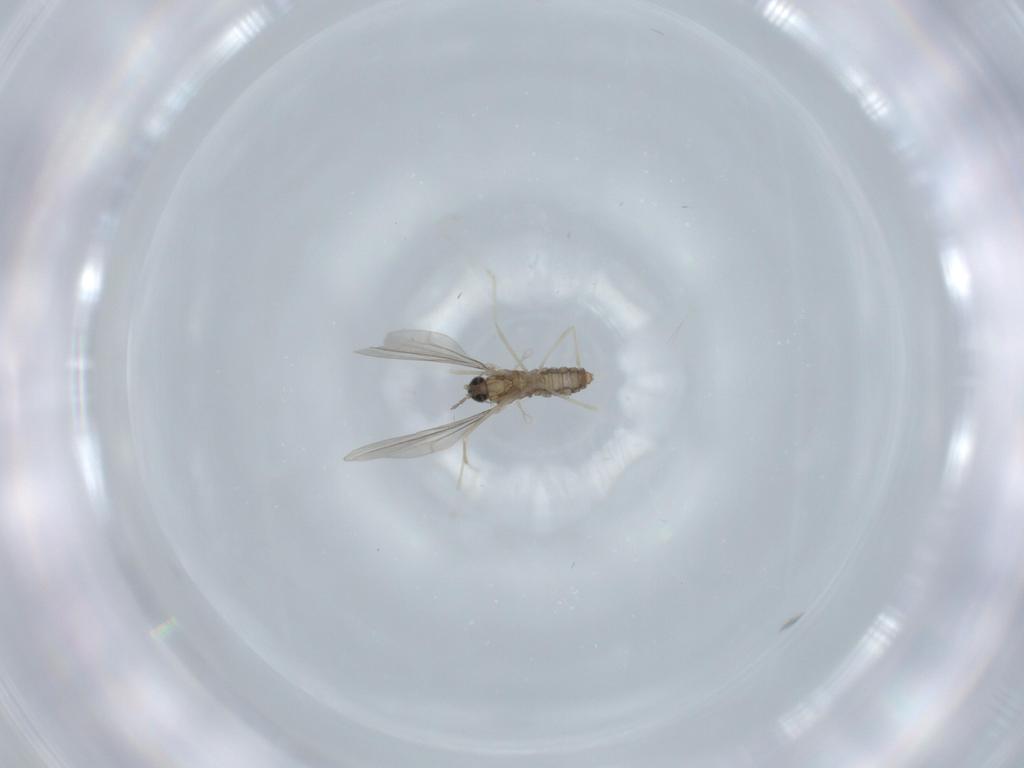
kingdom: Animalia
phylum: Arthropoda
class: Insecta
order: Diptera
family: Cecidomyiidae
